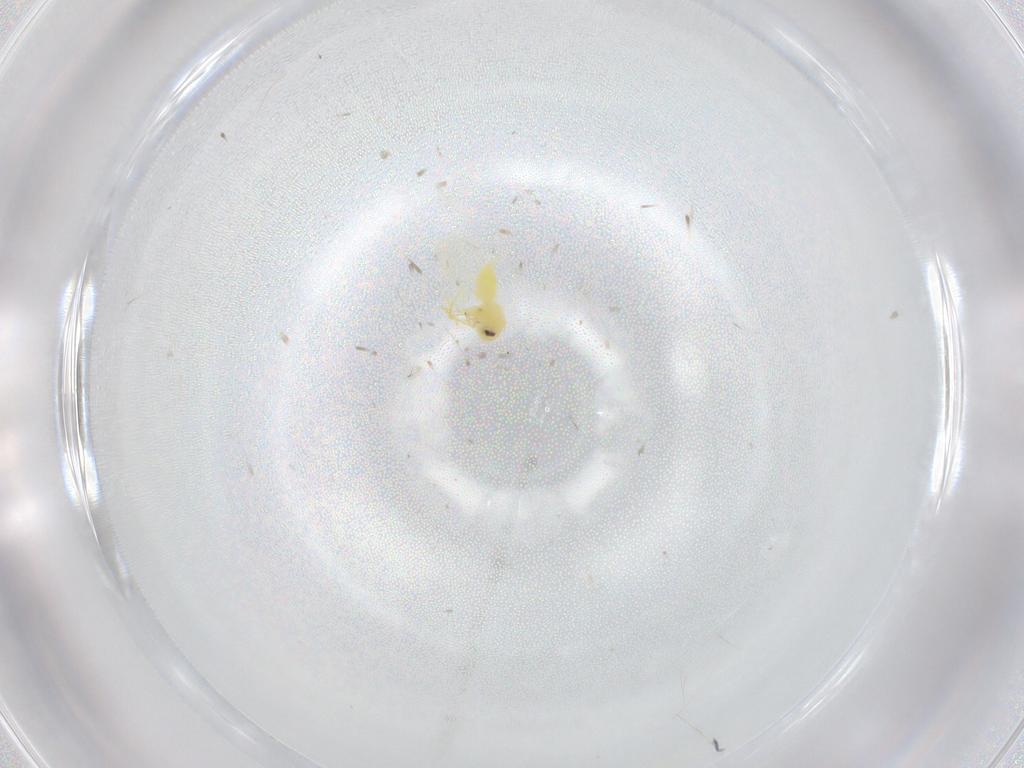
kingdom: Animalia
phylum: Arthropoda
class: Insecta
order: Hemiptera
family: Aleyrodidae
